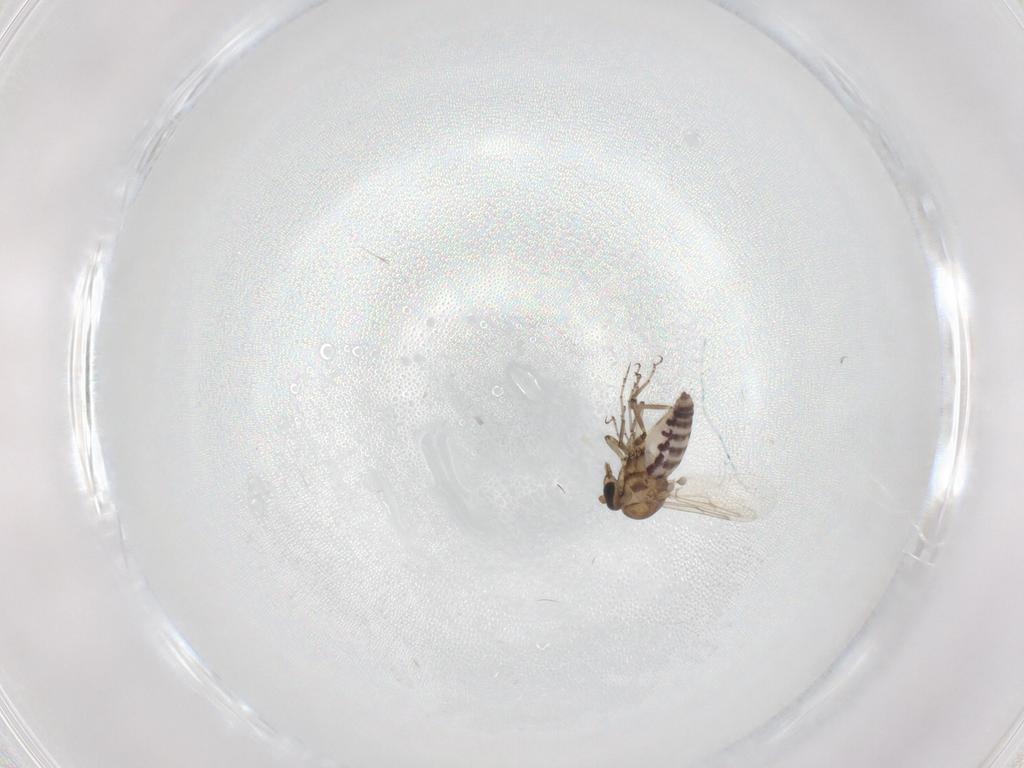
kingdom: Animalia
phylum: Arthropoda
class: Insecta
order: Diptera
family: Ceratopogonidae
